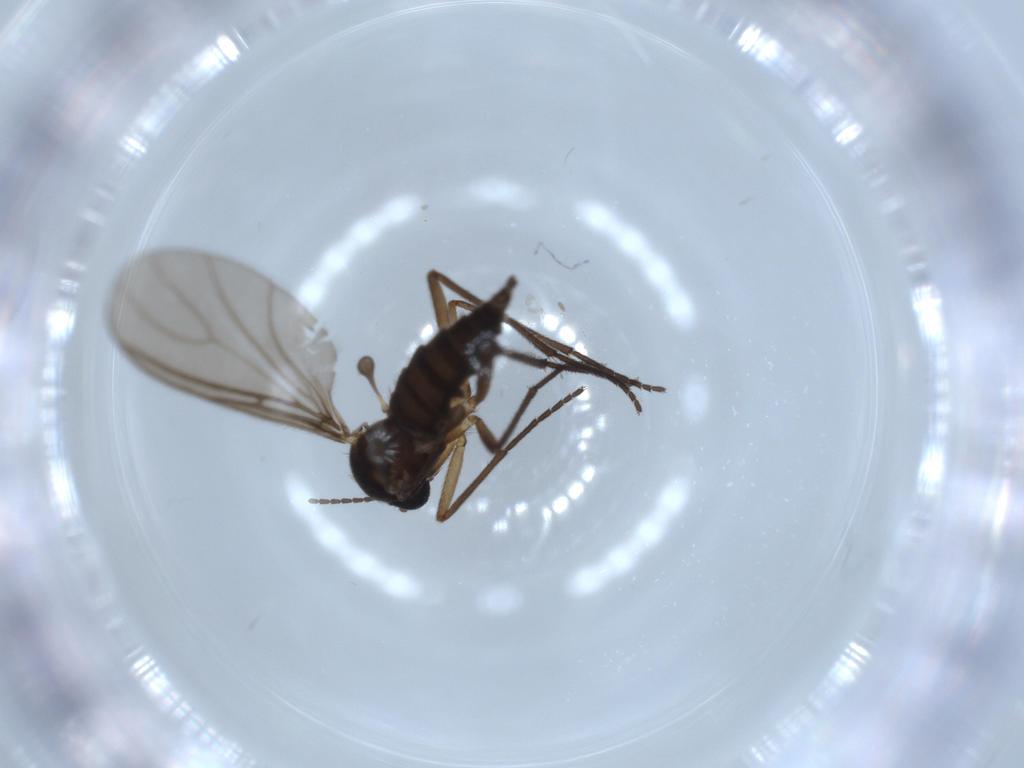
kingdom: Animalia
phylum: Arthropoda
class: Insecta
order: Diptera
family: Sciaridae
